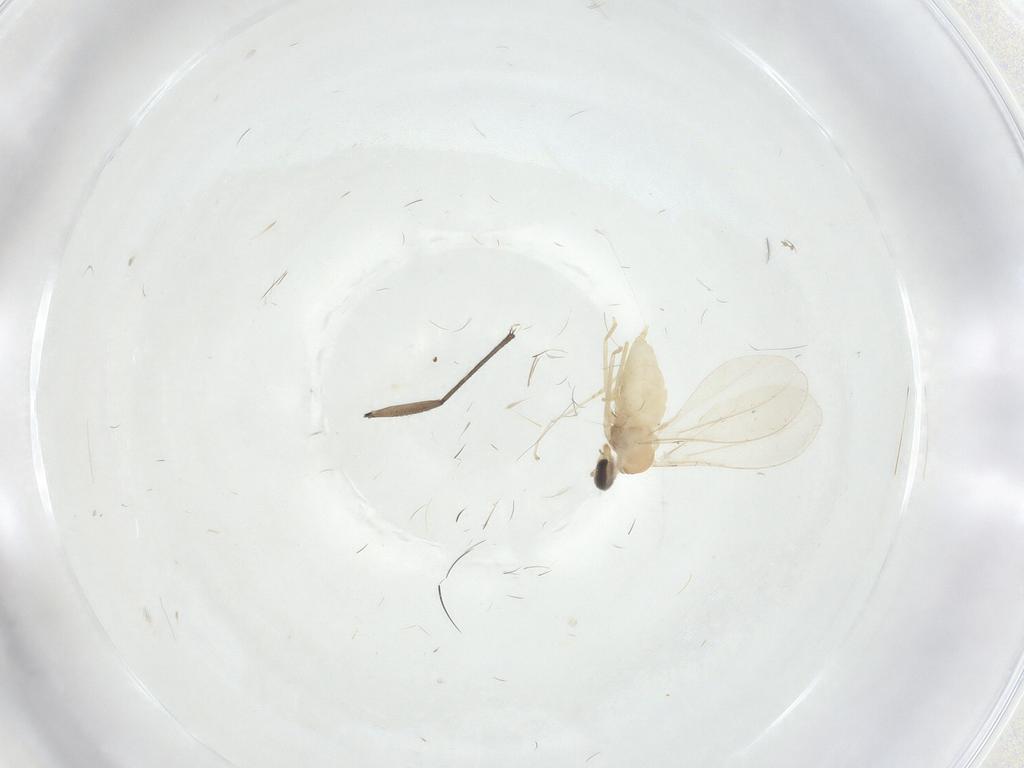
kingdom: Animalia
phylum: Arthropoda
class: Insecta
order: Diptera
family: Cecidomyiidae
